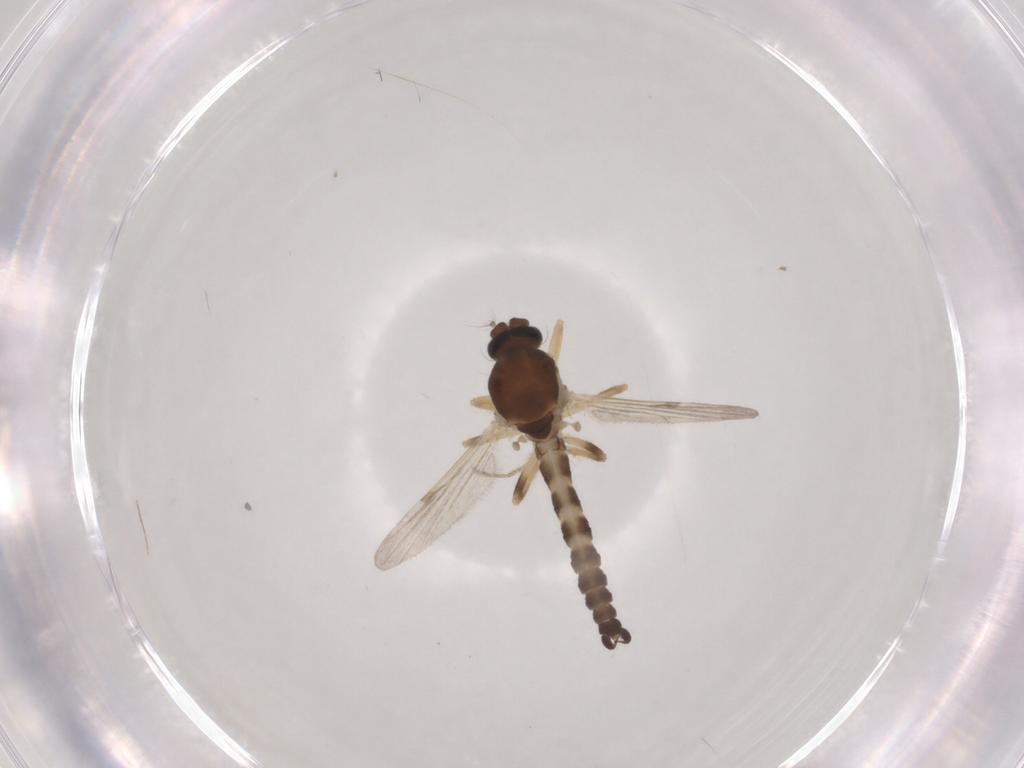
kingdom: Animalia
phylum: Arthropoda
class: Insecta
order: Diptera
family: Ceratopogonidae
